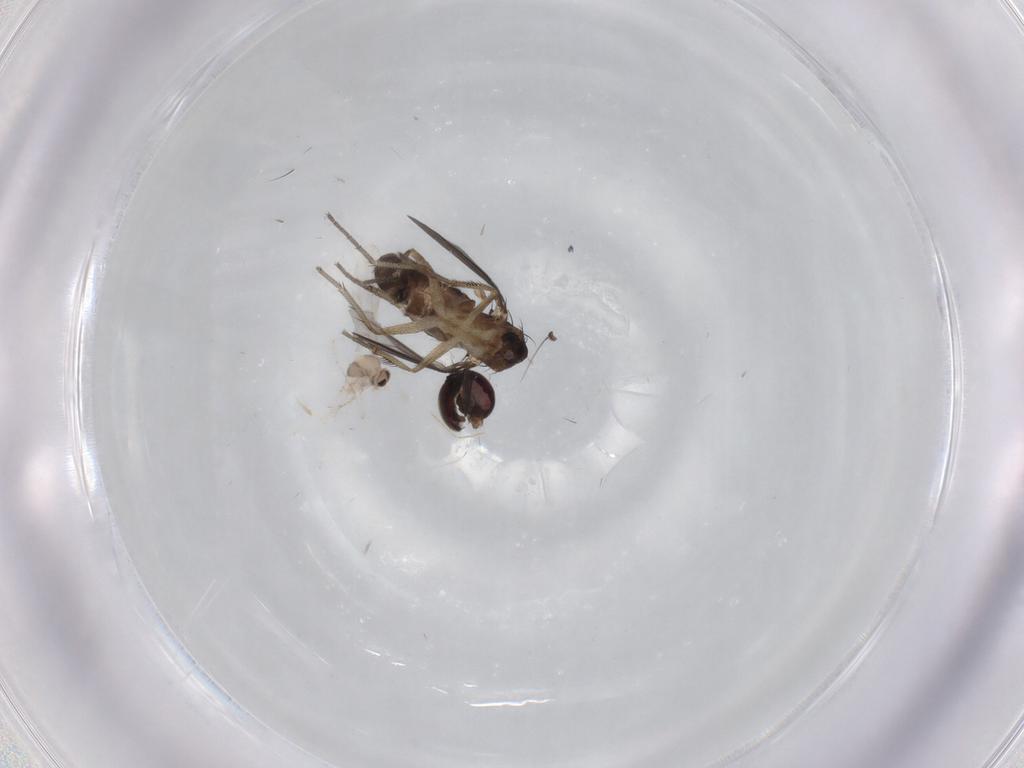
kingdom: Animalia
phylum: Arthropoda
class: Insecta
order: Diptera
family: Dolichopodidae
